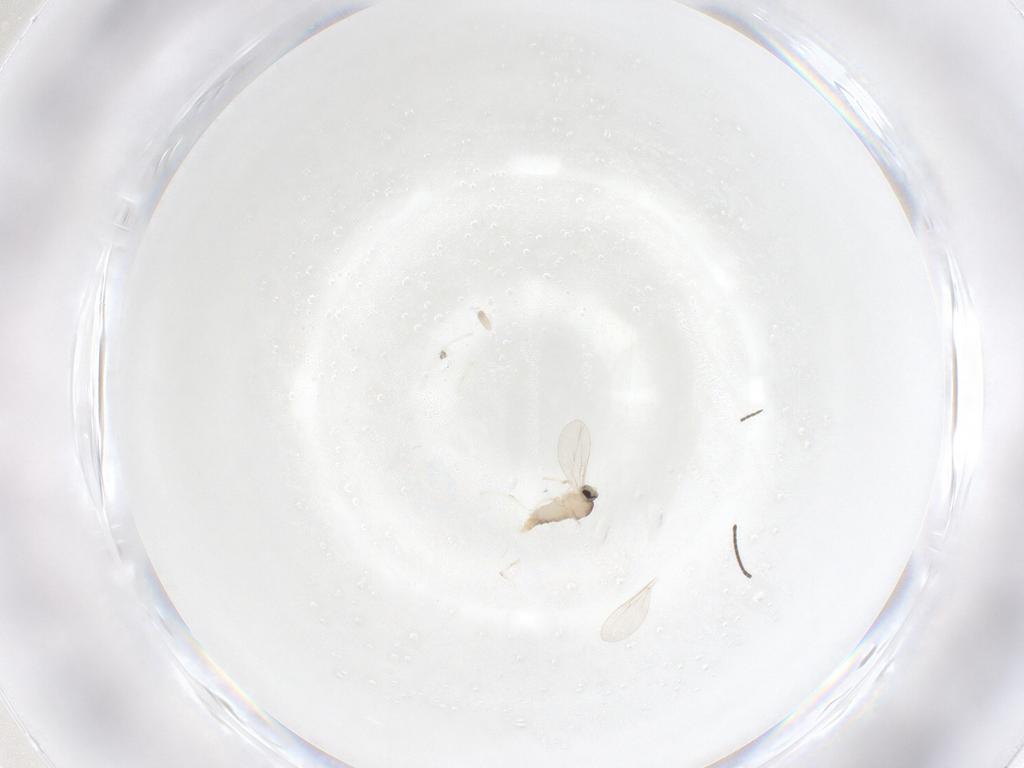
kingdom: Animalia
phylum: Arthropoda
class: Insecta
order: Diptera
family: Sciaridae
